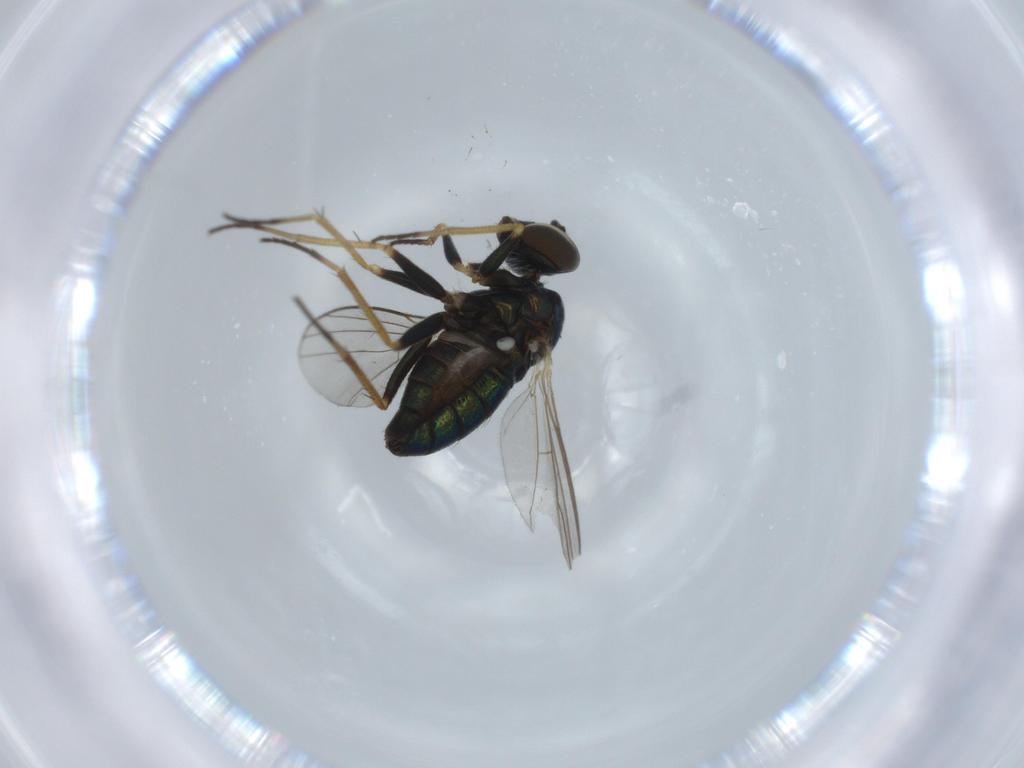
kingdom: Animalia
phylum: Arthropoda
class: Insecta
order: Diptera
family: Dolichopodidae
